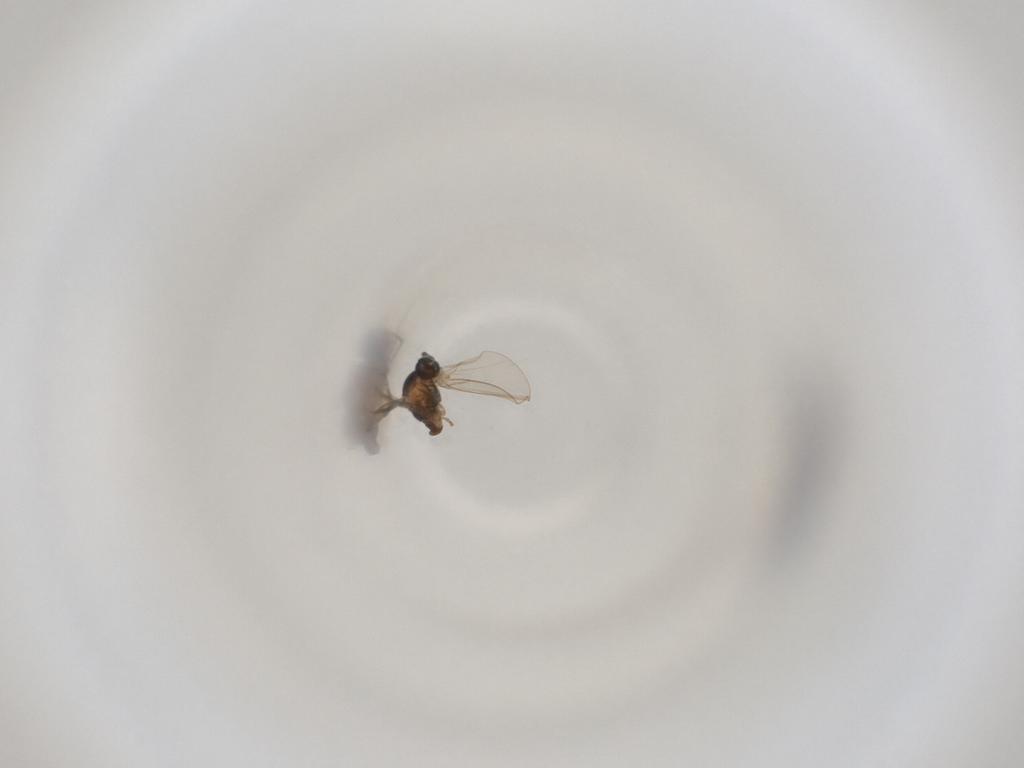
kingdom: Animalia
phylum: Arthropoda
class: Insecta
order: Diptera
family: Cecidomyiidae
